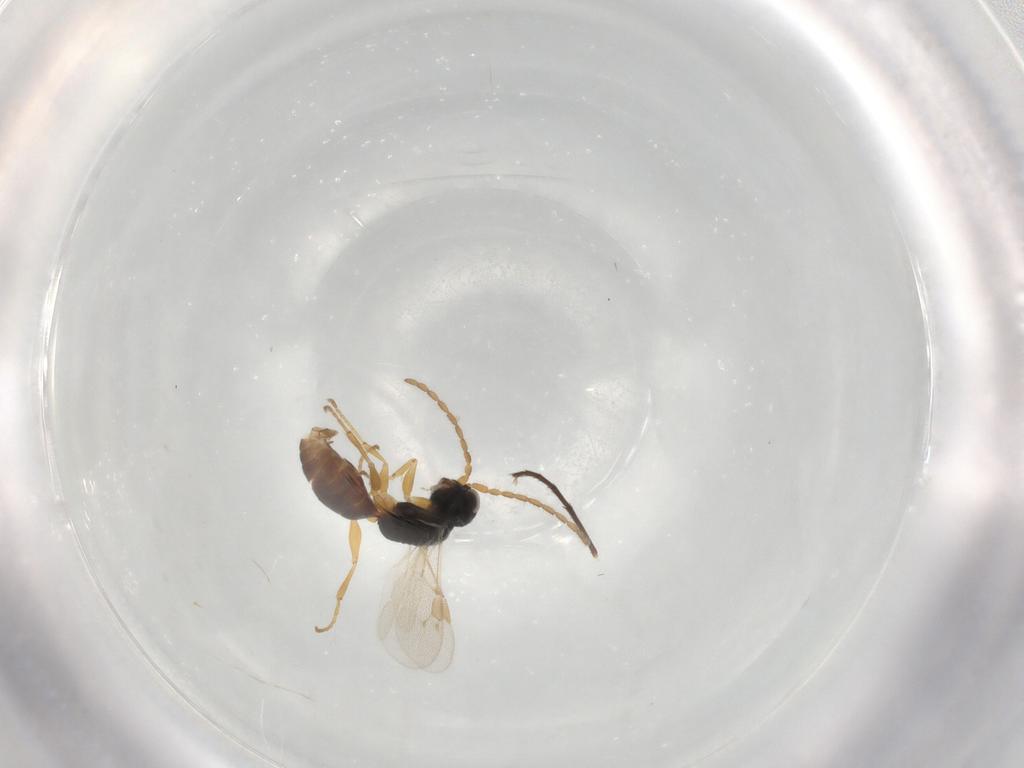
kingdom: Animalia
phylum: Arthropoda
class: Insecta
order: Hymenoptera
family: Dryinidae
